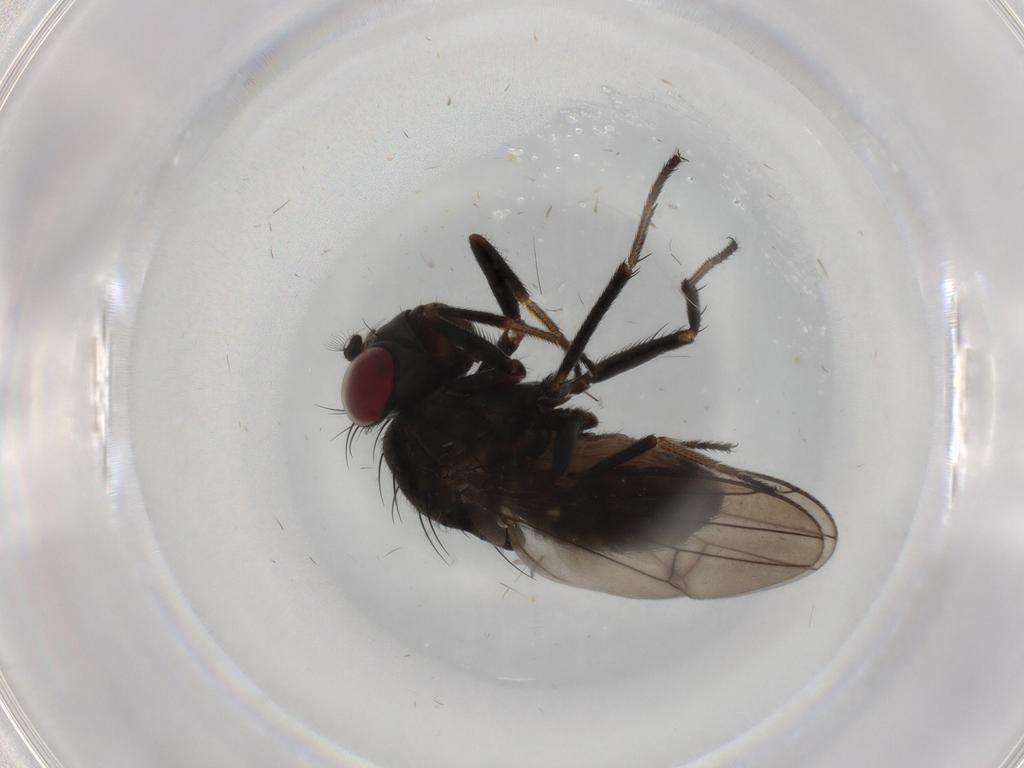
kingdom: Animalia
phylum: Arthropoda
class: Insecta
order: Diptera
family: Ephydridae
